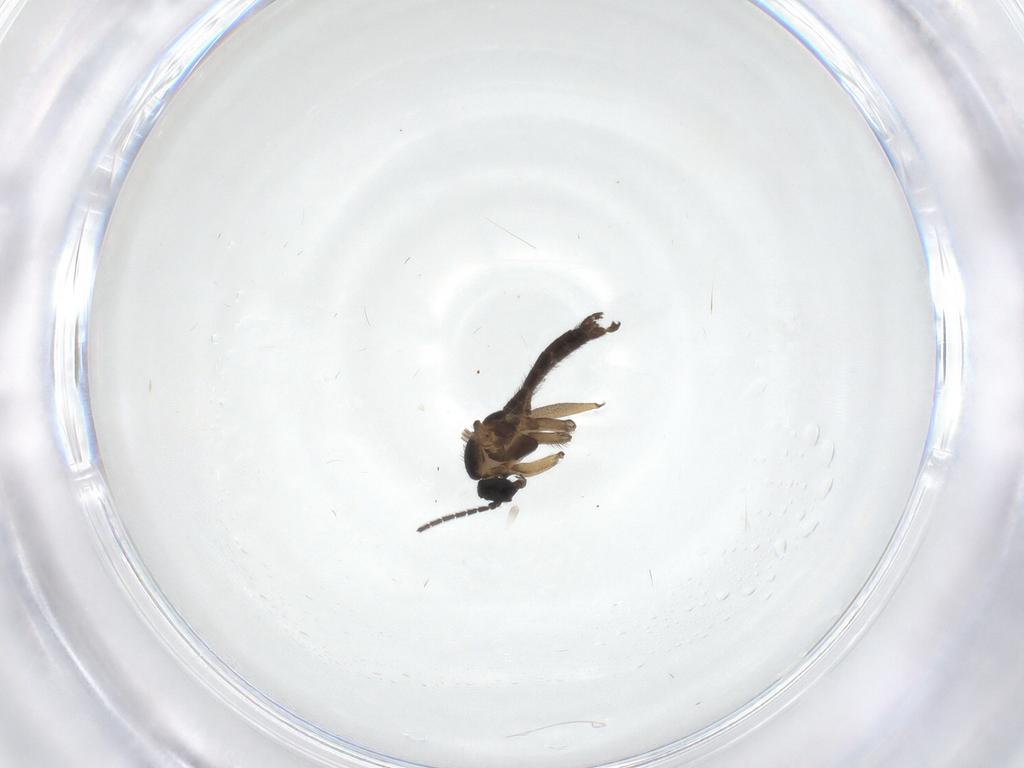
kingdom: Animalia
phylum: Arthropoda
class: Insecta
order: Diptera
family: Sciaridae
